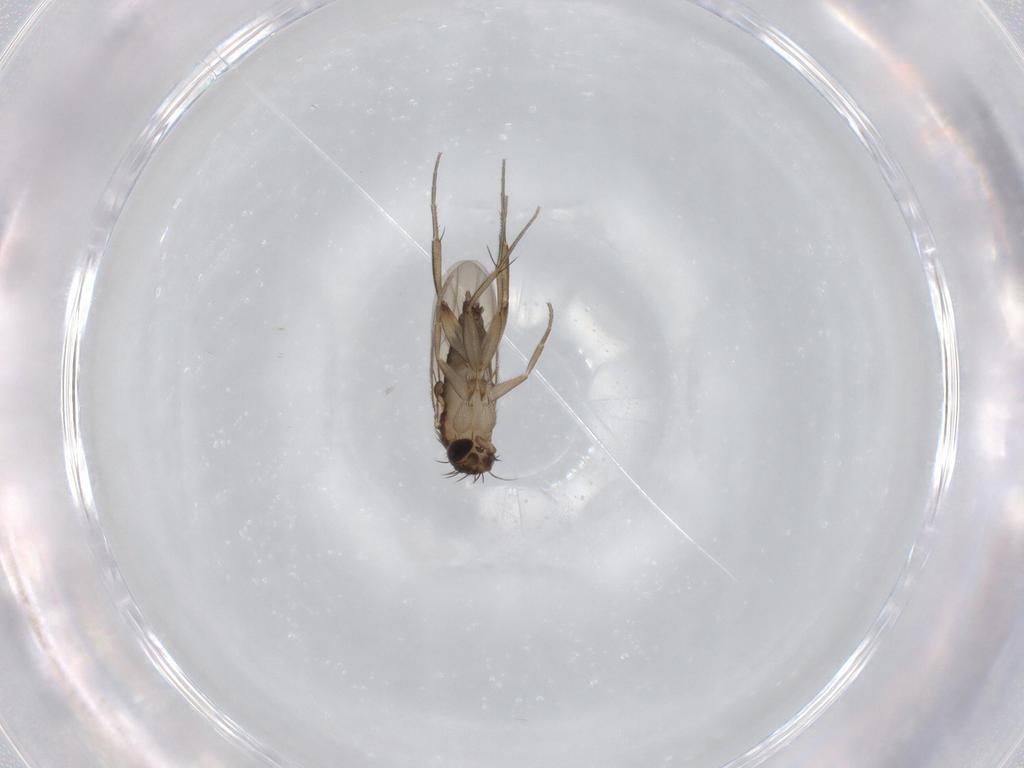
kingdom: Animalia
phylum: Arthropoda
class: Insecta
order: Diptera
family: Phoridae
